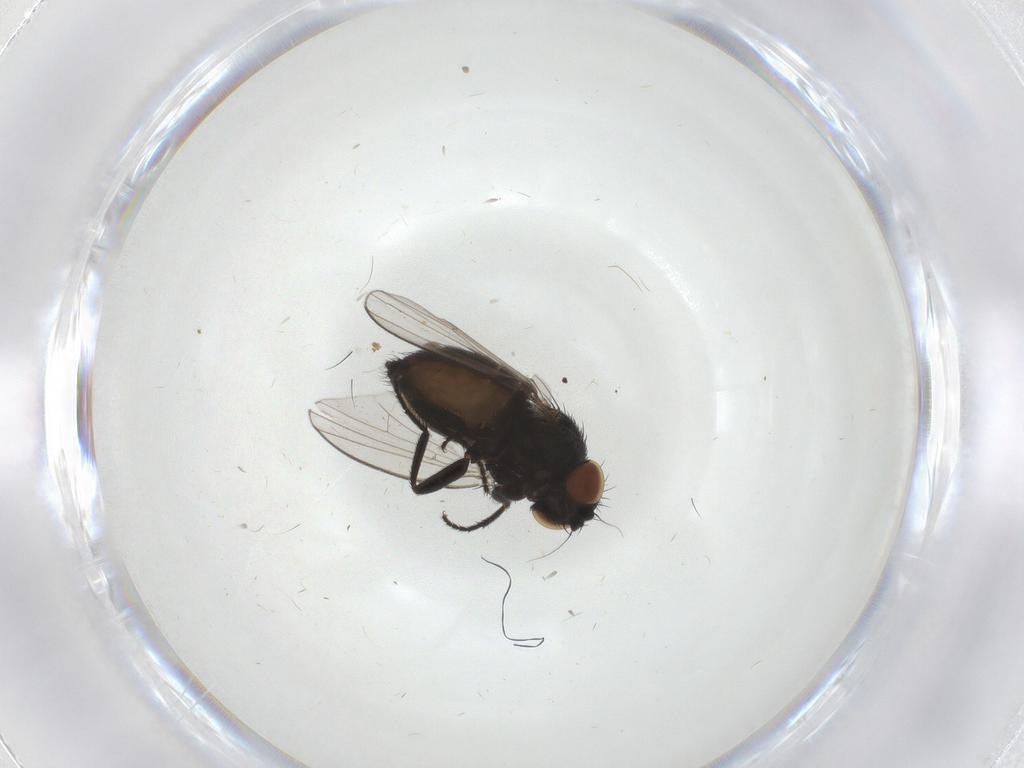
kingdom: Animalia
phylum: Arthropoda
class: Insecta
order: Diptera
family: Milichiidae
